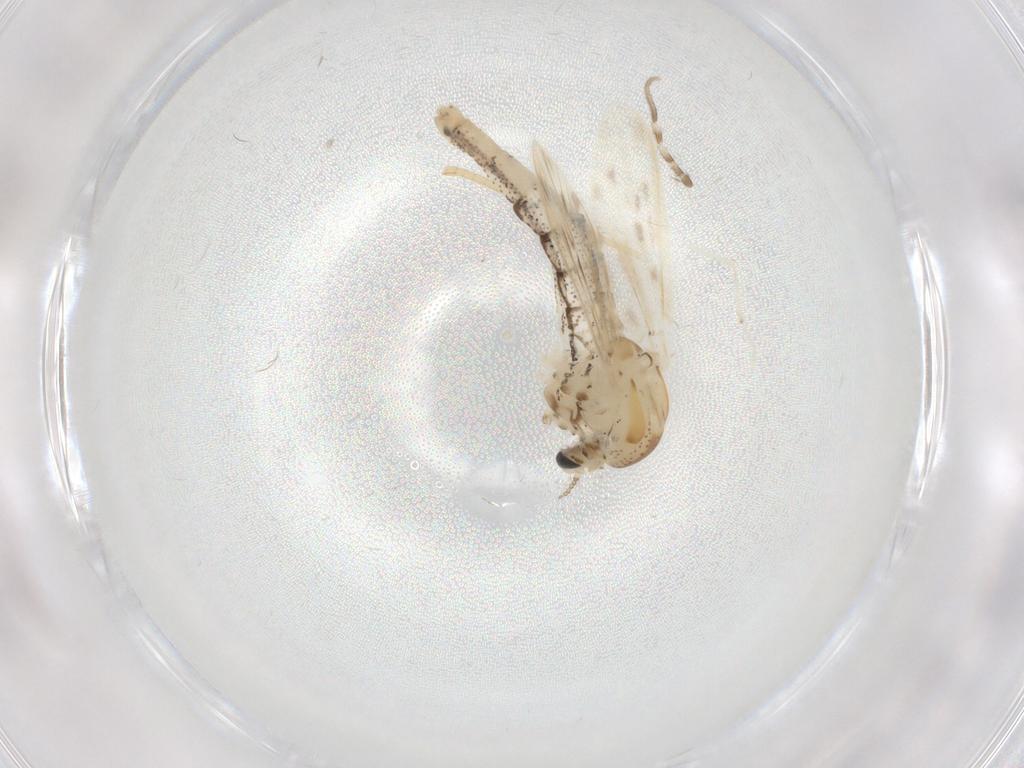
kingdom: Animalia
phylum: Arthropoda
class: Insecta
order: Diptera
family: Chaoboridae
